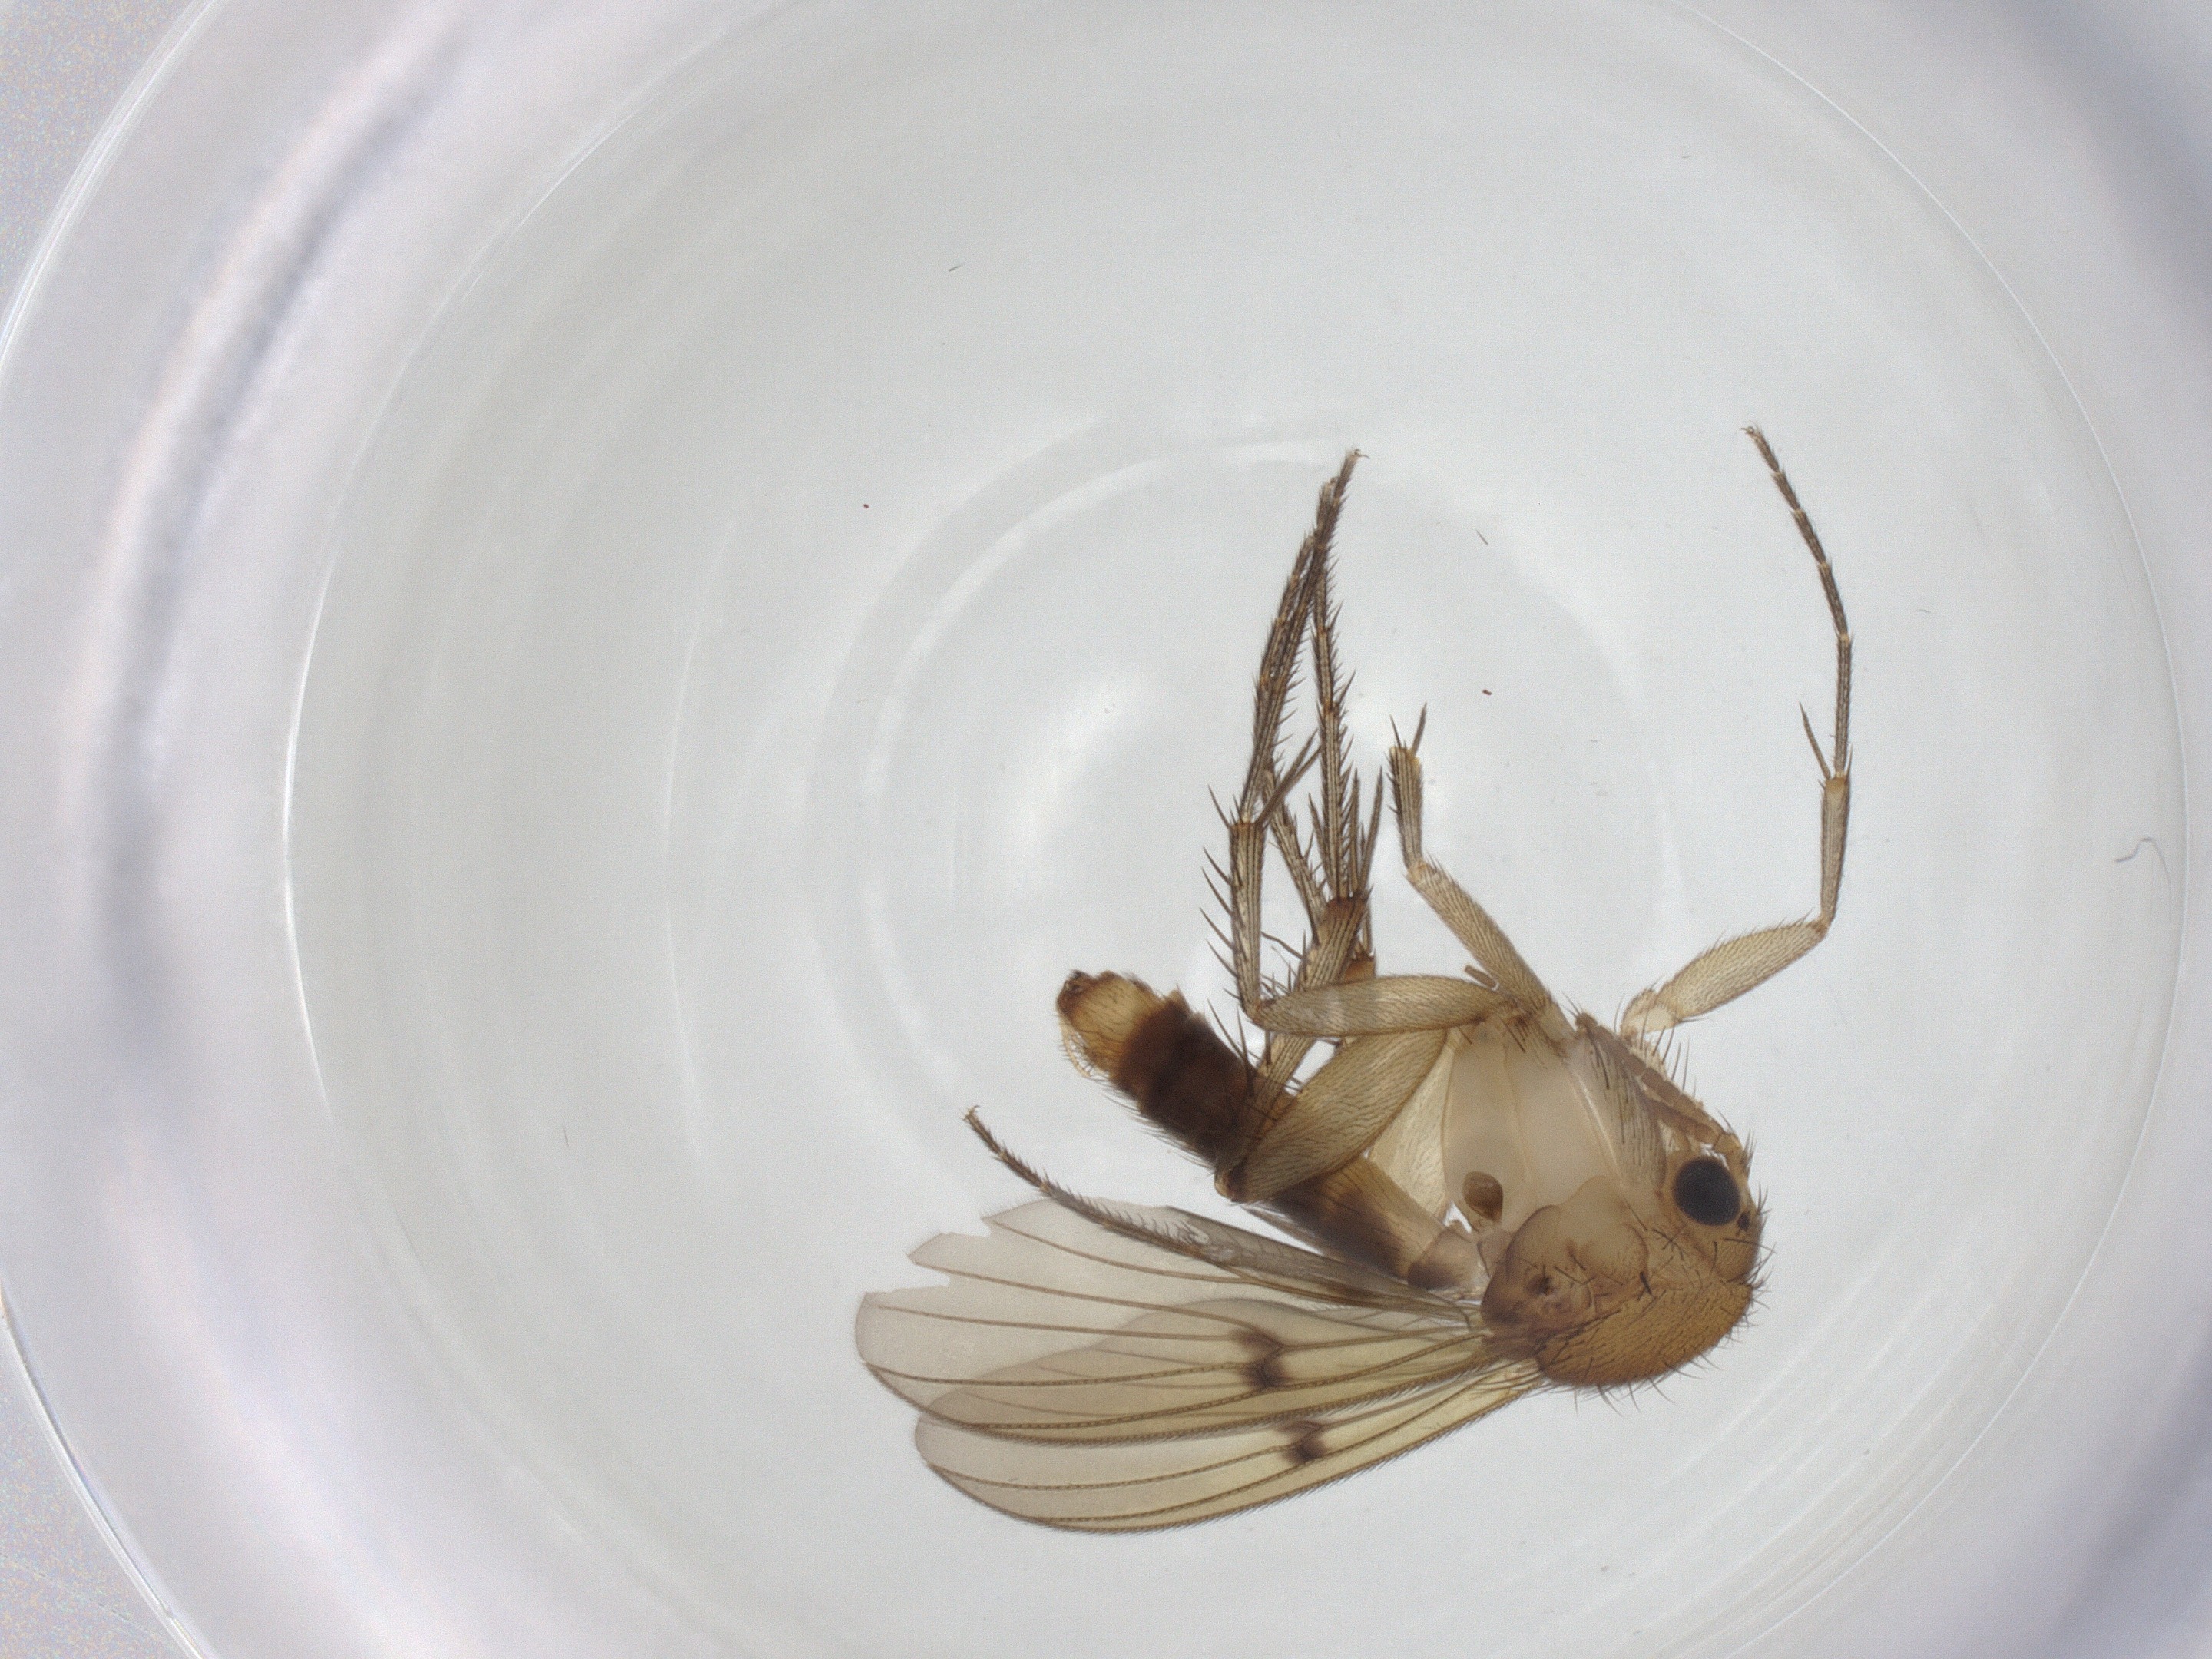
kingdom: Animalia
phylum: Arthropoda
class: Insecta
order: Diptera
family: Mycetophilidae
